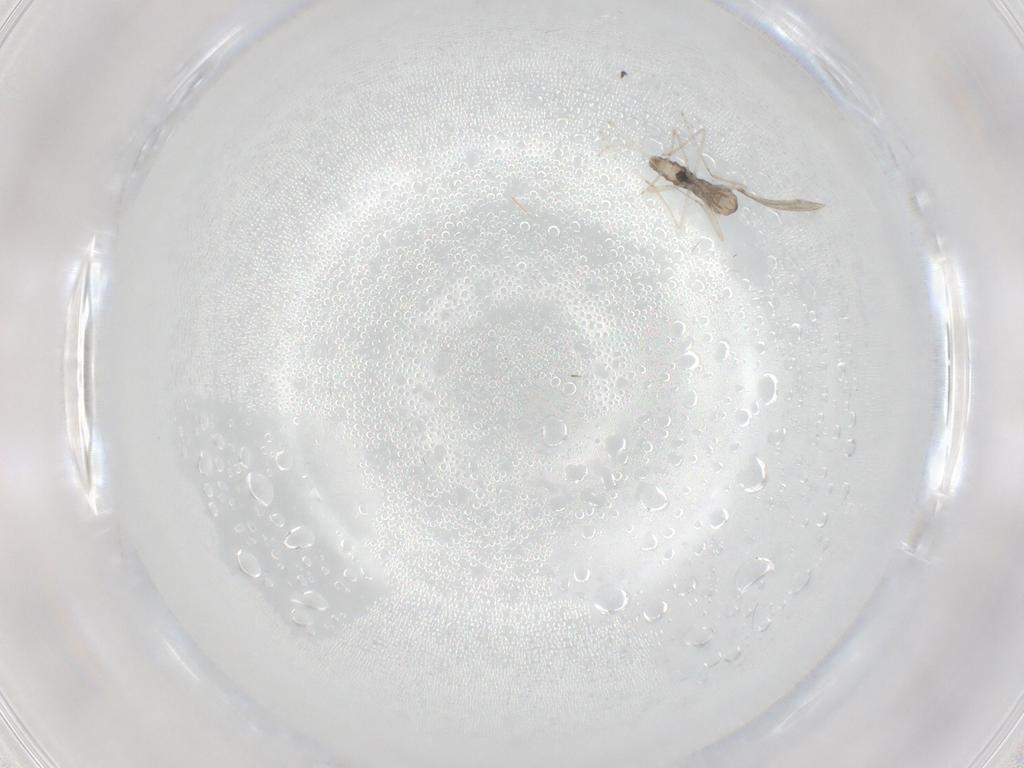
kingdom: Animalia
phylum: Arthropoda
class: Insecta
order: Diptera
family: Cecidomyiidae
